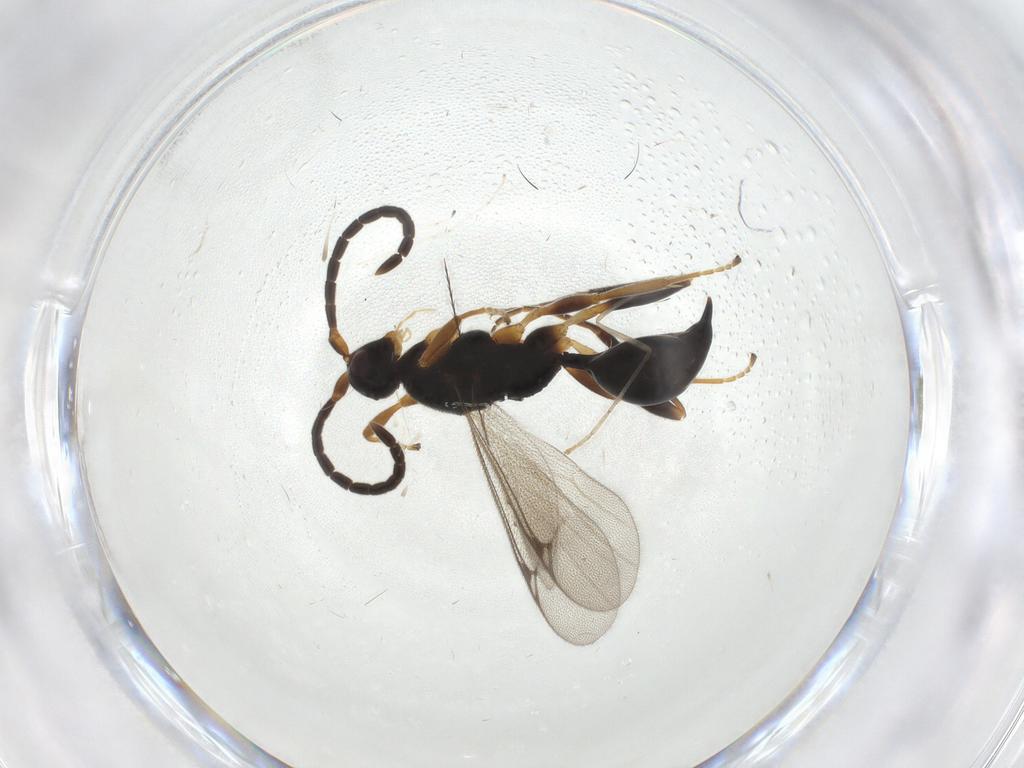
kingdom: Animalia
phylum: Arthropoda
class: Insecta
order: Hymenoptera
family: Proctotrupidae
